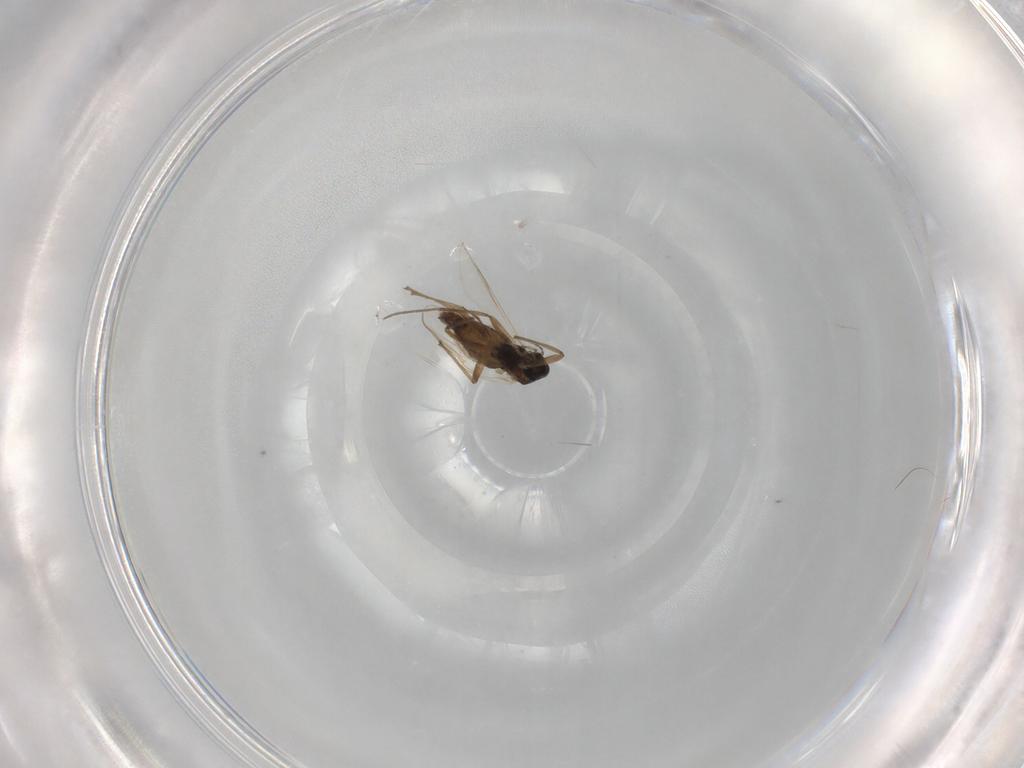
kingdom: Animalia
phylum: Arthropoda
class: Insecta
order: Diptera
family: Chironomidae
